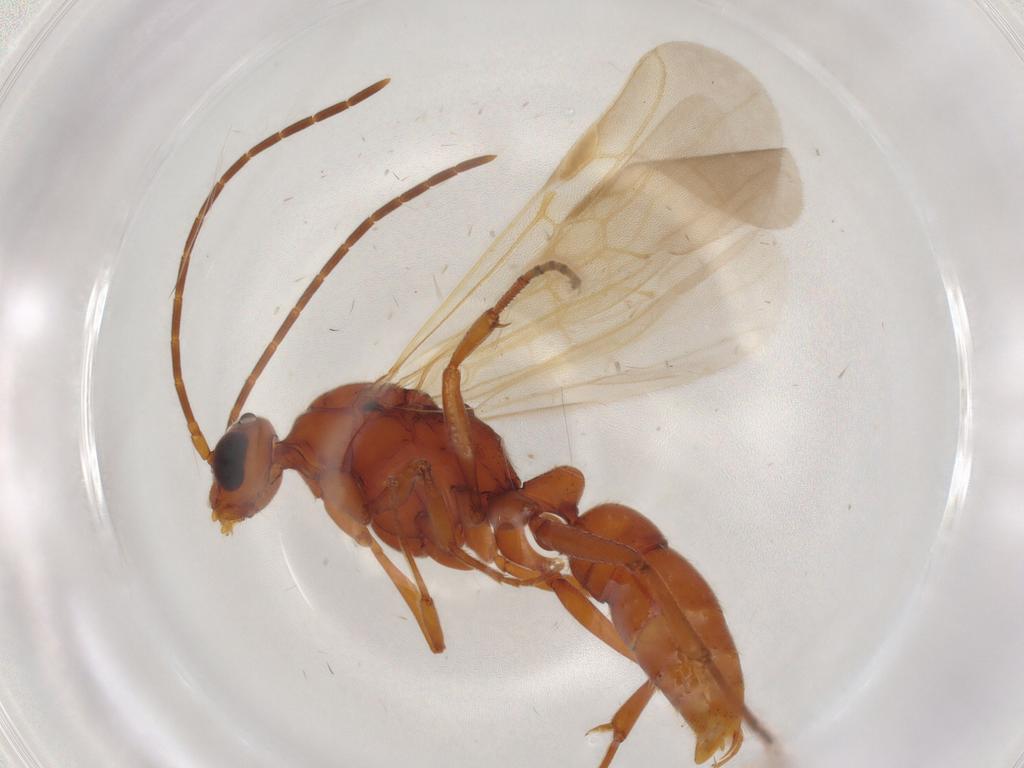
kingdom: Animalia
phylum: Arthropoda
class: Insecta
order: Hymenoptera
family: Formicidae
